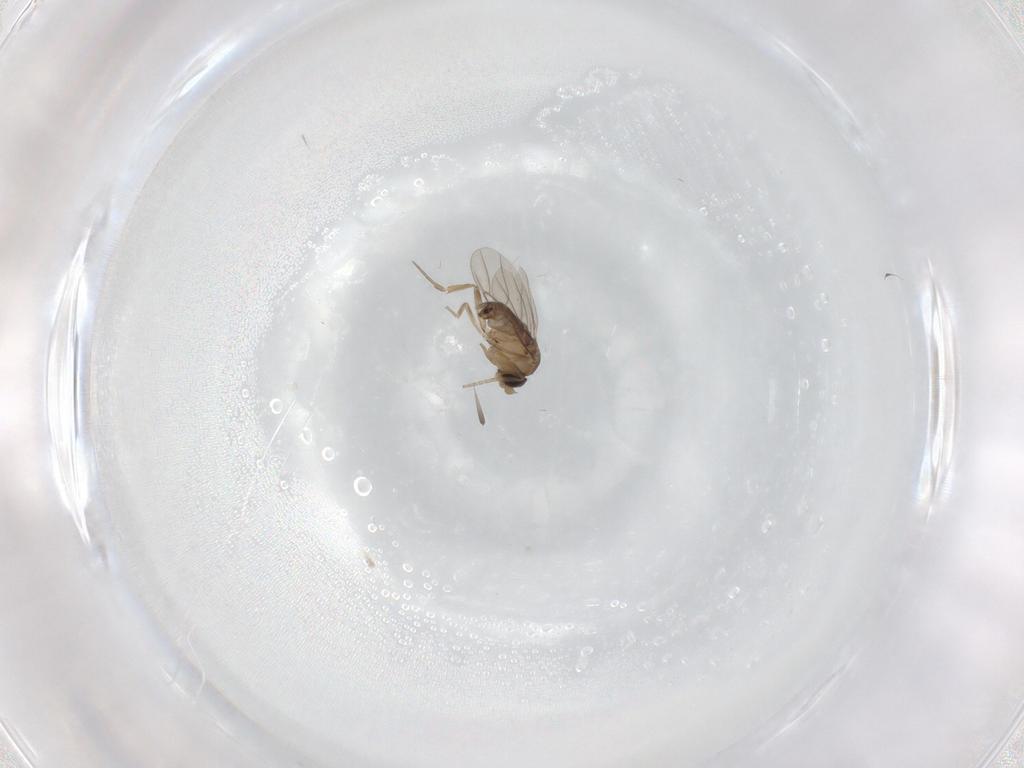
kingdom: Animalia
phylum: Arthropoda
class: Insecta
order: Diptera
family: Phoridae
